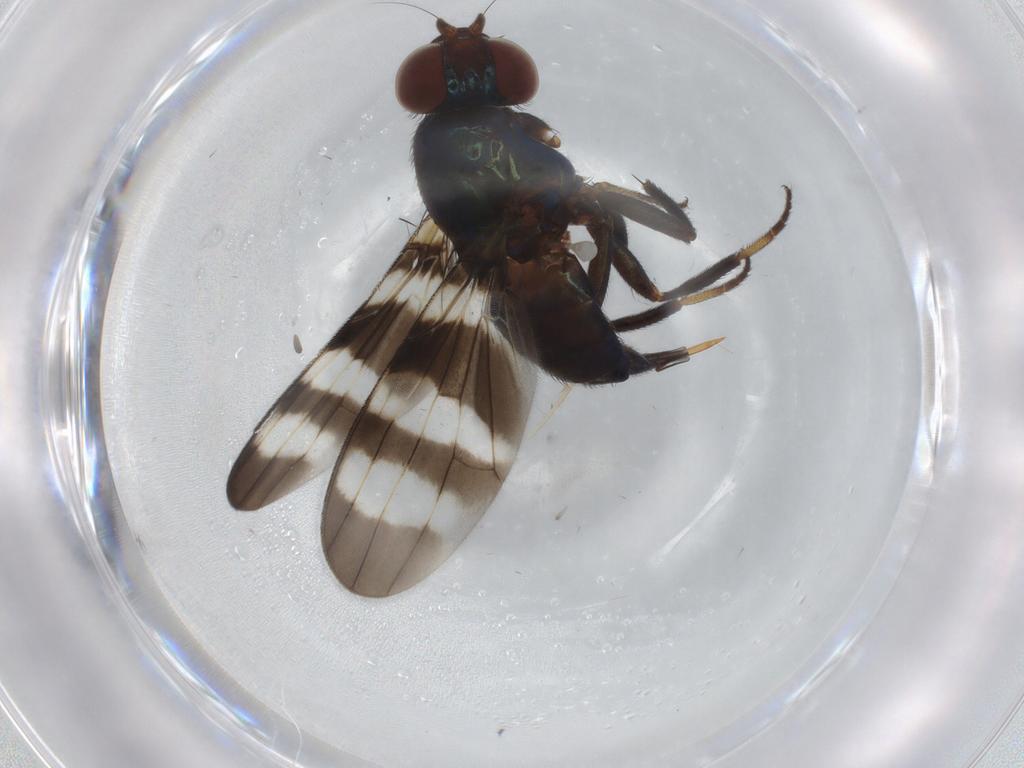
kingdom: Animalia
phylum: Arthropoda
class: Insecta
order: Diptera
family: Ulidiidae
